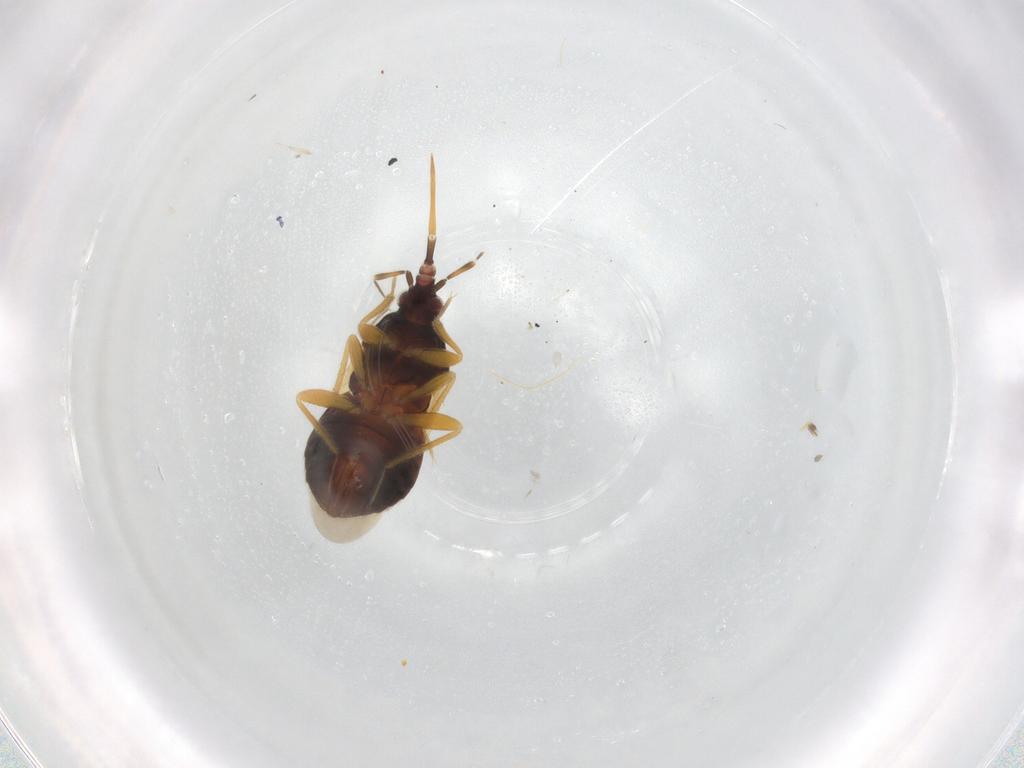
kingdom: Animalia
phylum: Arthropoda
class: Insecta
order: Hemiptera
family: Anthocoridae
